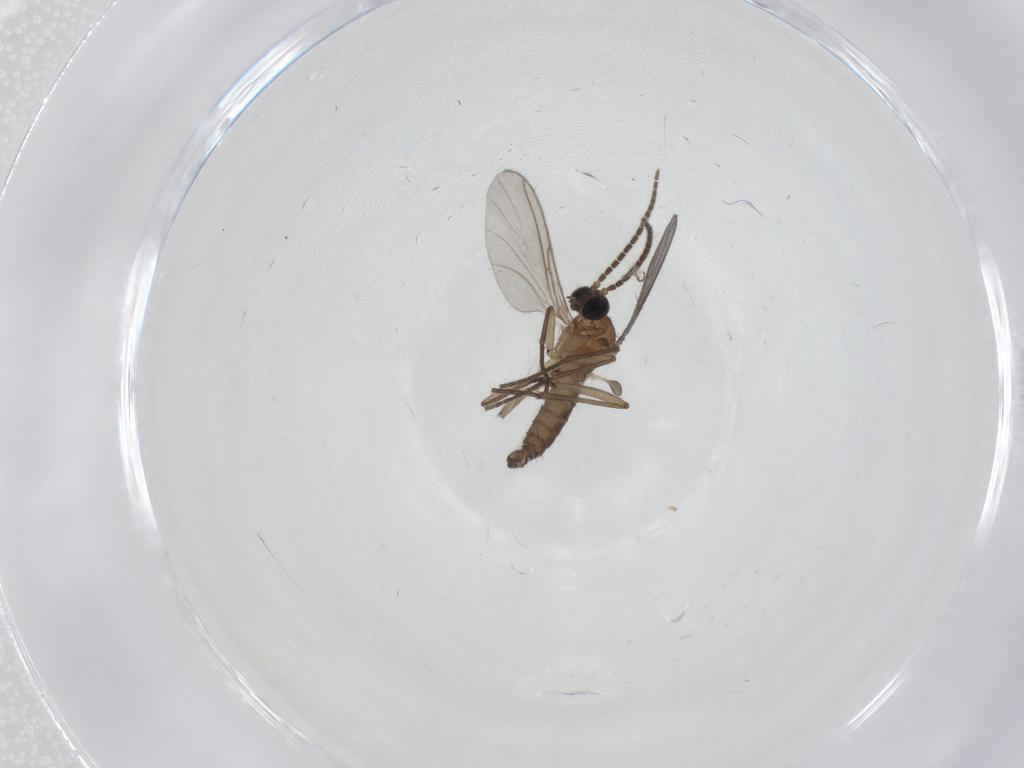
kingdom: Animalia
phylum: Arthropoda
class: Insecta
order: Diptera
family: Sciaridae
